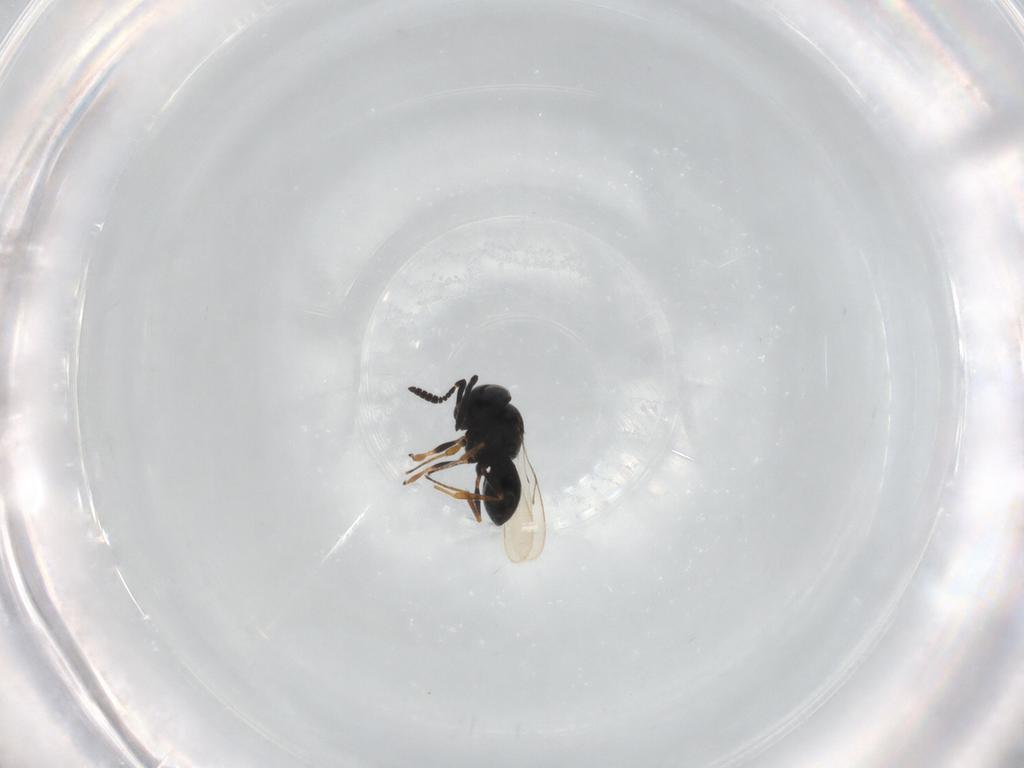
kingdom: Animalia
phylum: Arthropoda
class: Insecta
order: Hymenoptera
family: Scelionidae
